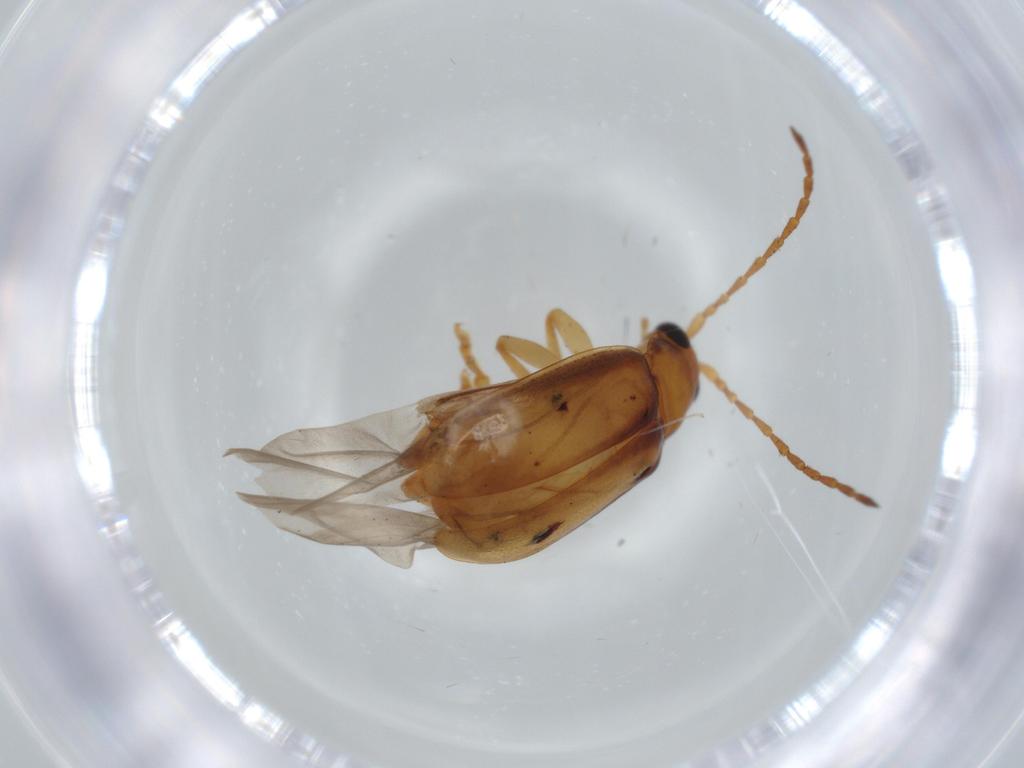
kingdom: Animalia
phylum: Arthropoda
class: Insecta
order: Coleoptera
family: Chrysomelidae
